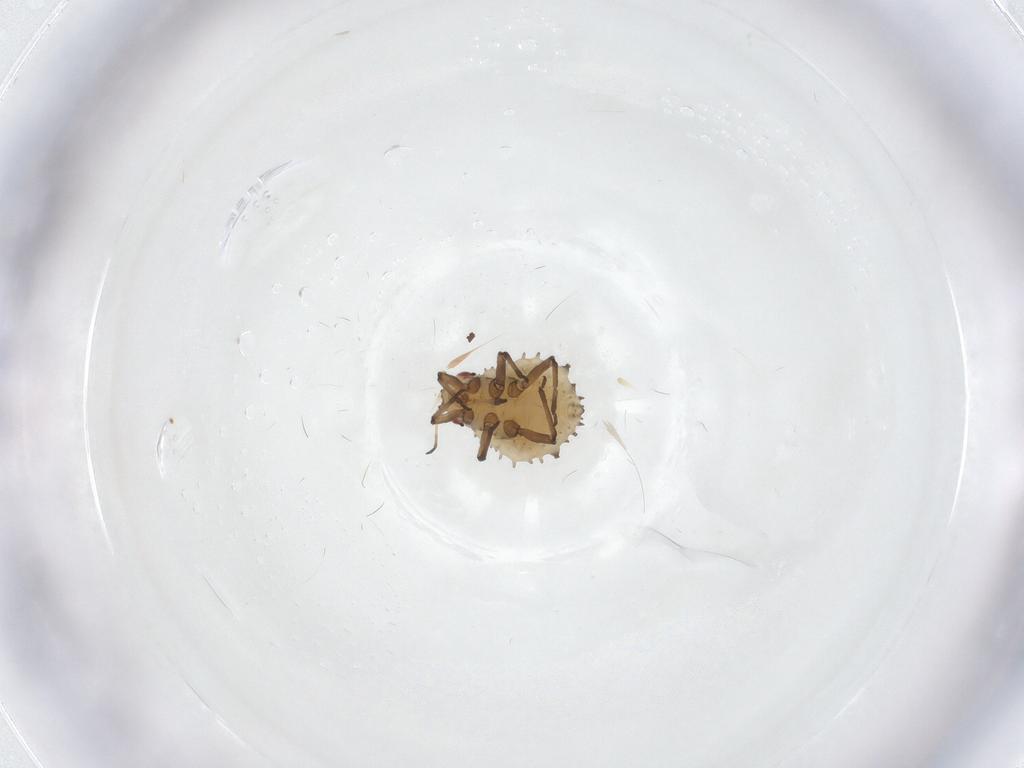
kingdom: Animalia
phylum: Arthropoda
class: Insecta
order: Hemiptera
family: Aphididae
